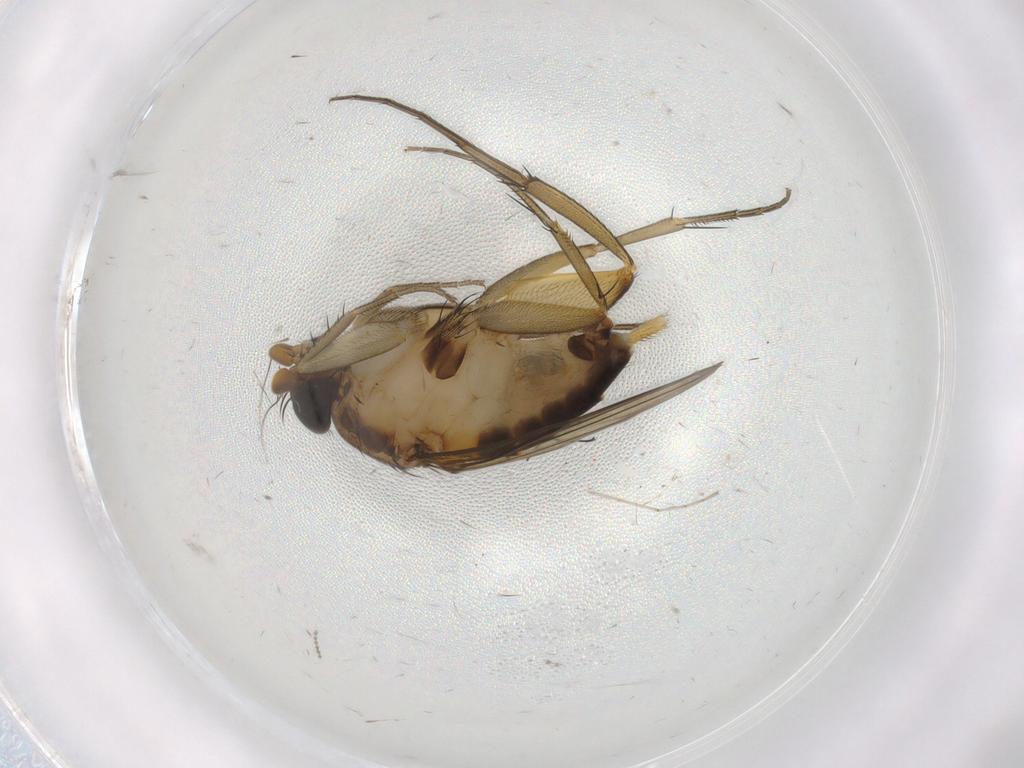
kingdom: Animalia
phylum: Arthropoda
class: Insecta
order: Diptera
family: Phoridae
